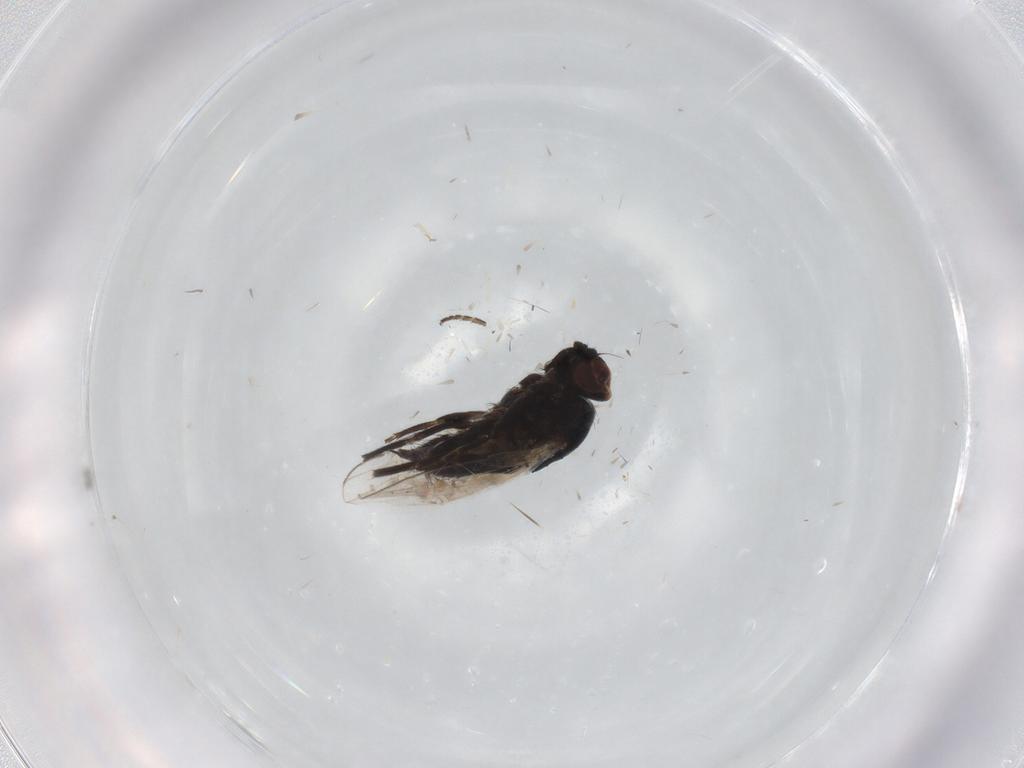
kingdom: Animalia
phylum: Arthropoda
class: Insecta
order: Diptera
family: Milichiidae
